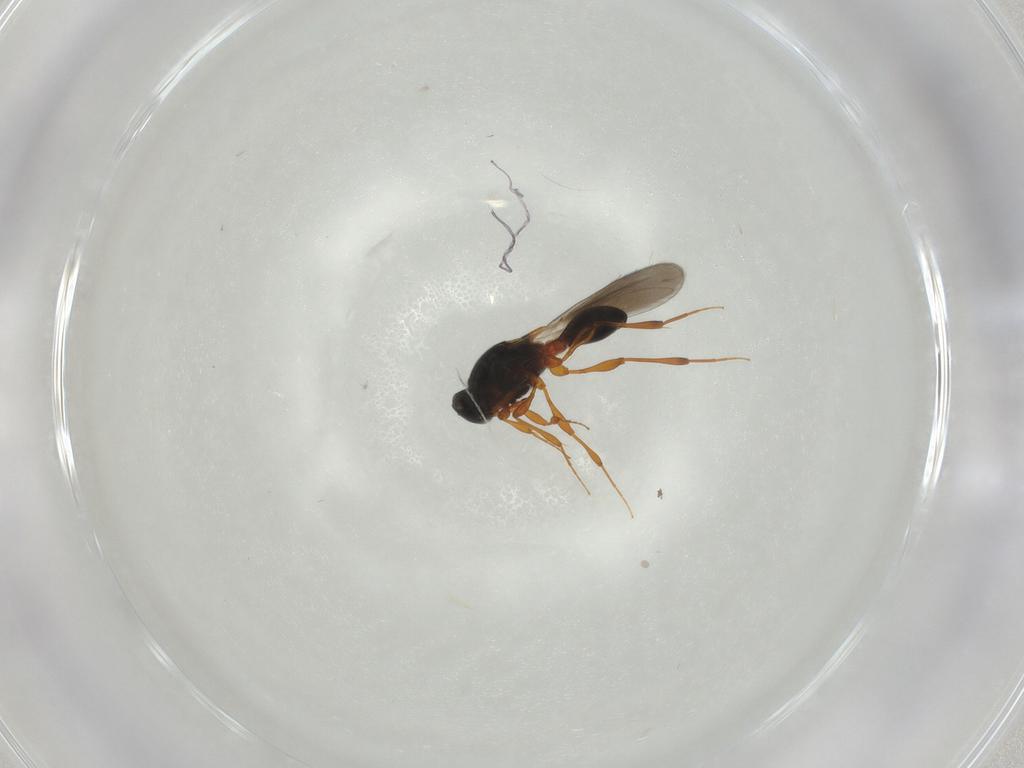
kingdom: Animalia
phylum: Arthropoda
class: Insecta
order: Hymenoptera
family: Platygastridae
